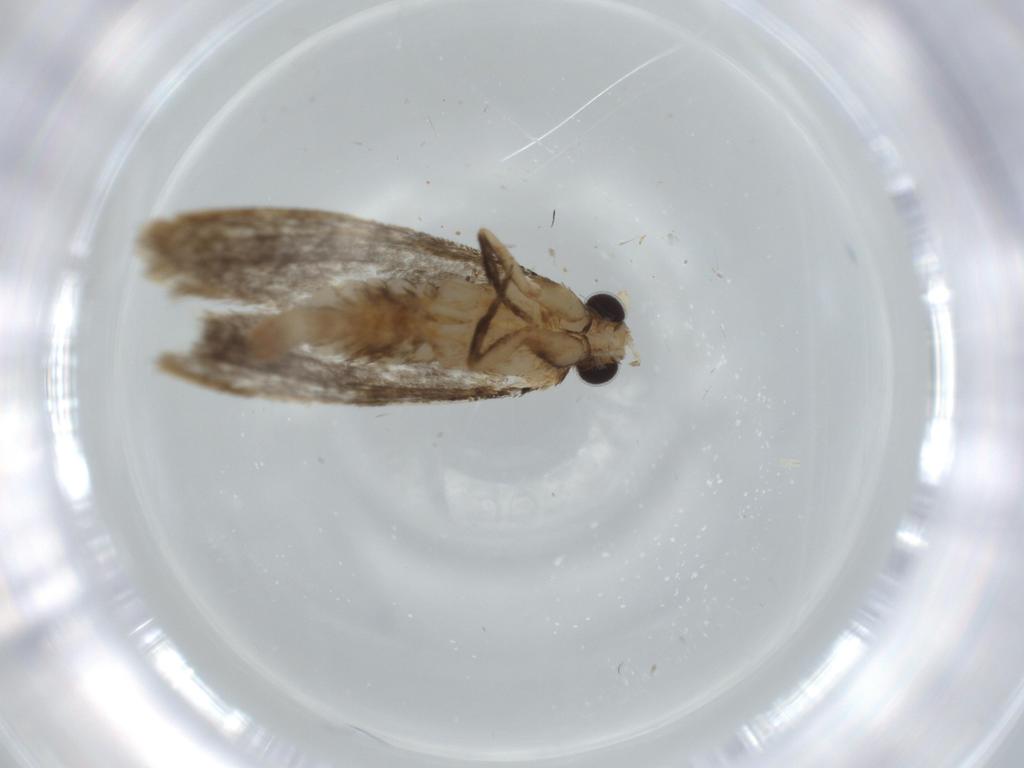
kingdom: Animalia
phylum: Arthropoda
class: Insecta
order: Lepidoptera
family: Tineidae
